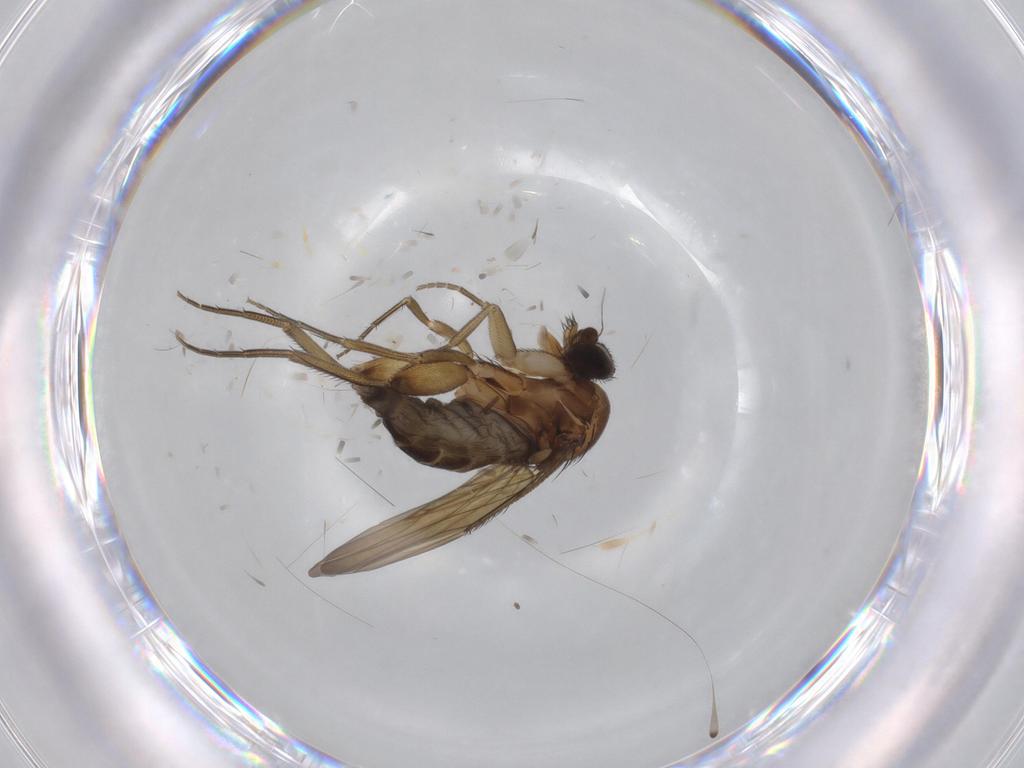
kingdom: Animalia
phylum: Arthropoda
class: Insecta
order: Diptera
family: Phoridae
